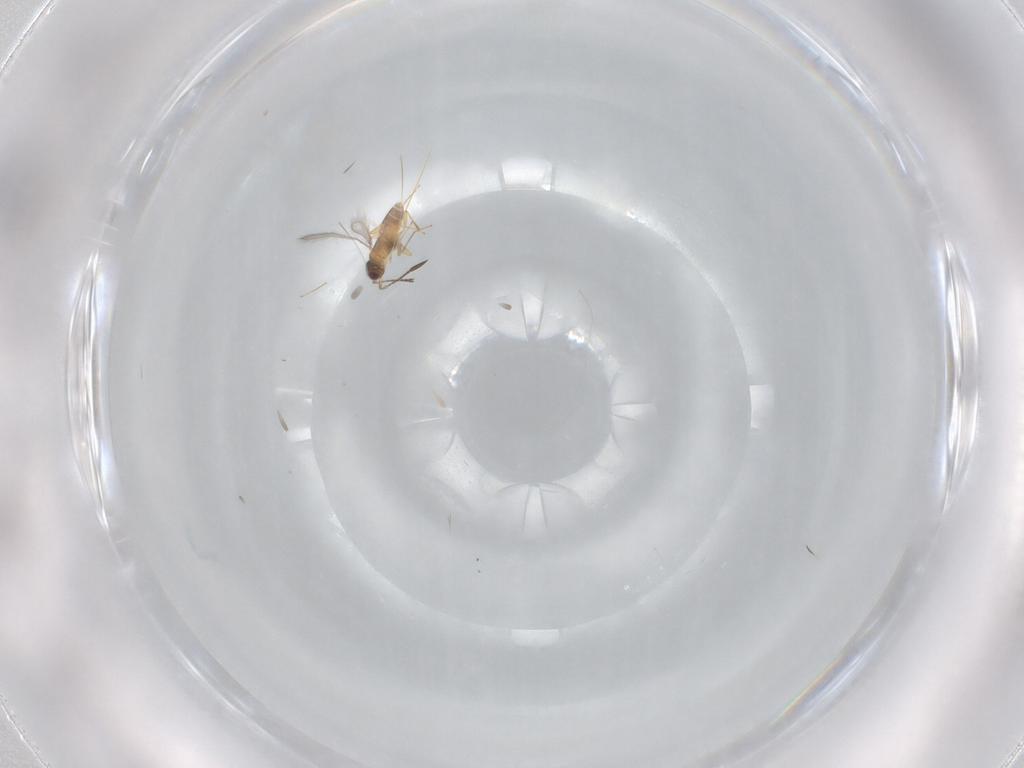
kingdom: Animalia
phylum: Arthropoda
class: Insecta
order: Hymenoptera
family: Mymaridae
